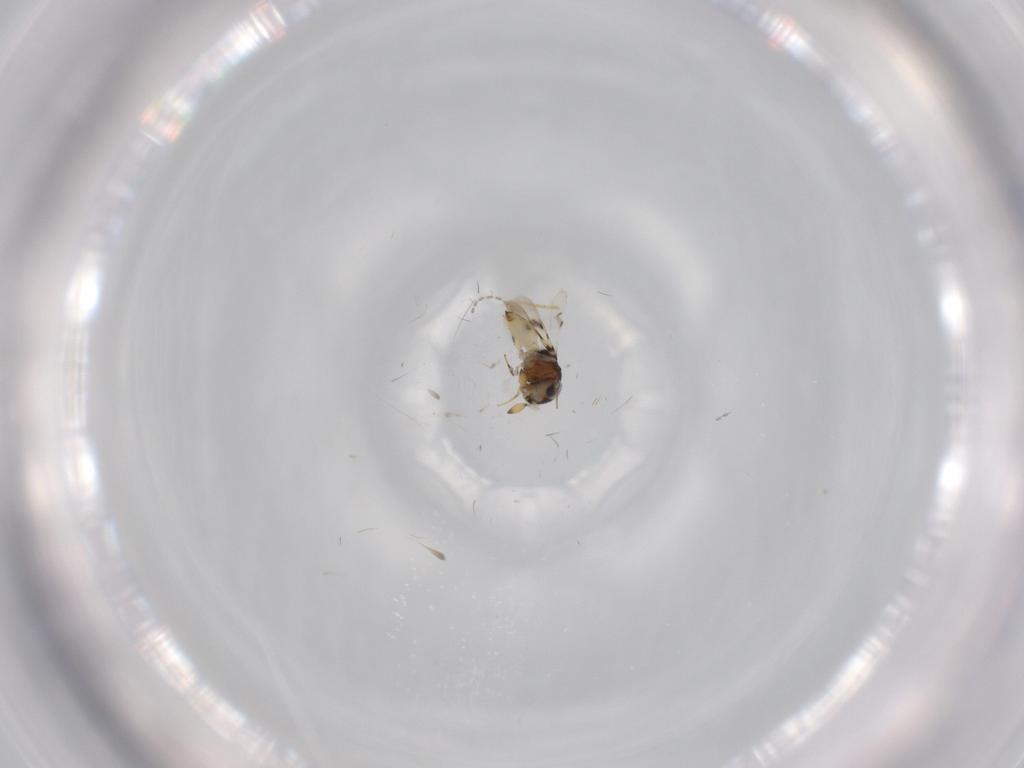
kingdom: Animalia
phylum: Arthropoda
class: Insecta
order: Hymenoptera
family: Scelionidae
